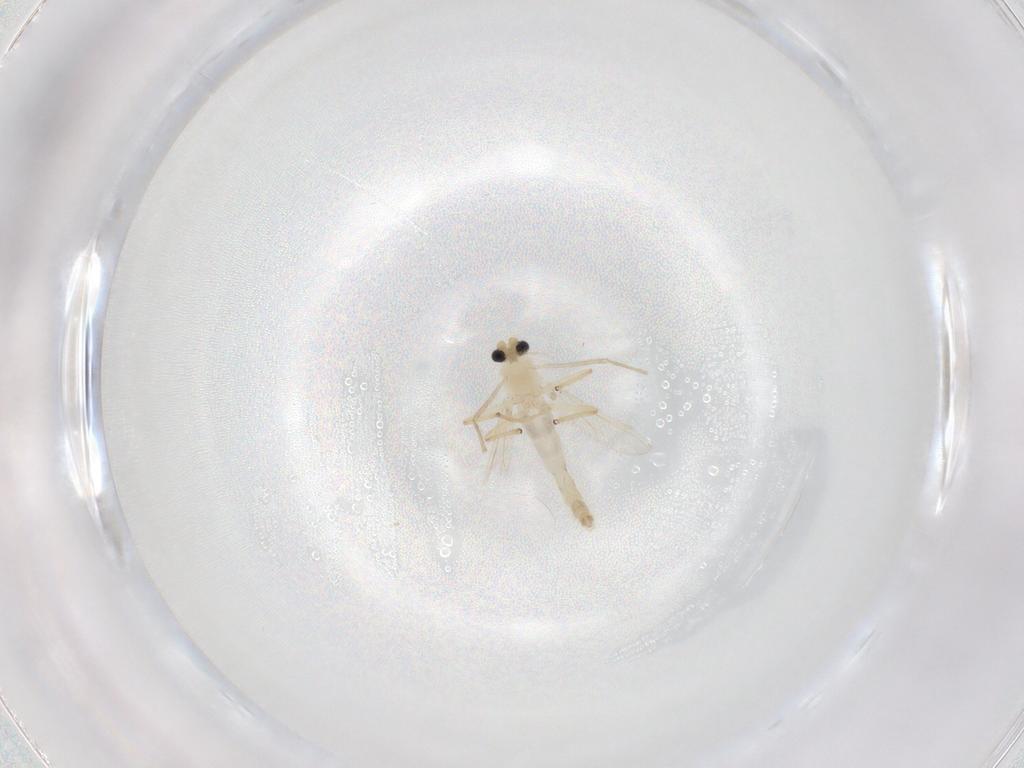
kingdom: Animalia
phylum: Arthropoda
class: Insecta
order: Diptera
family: Chironomidae
